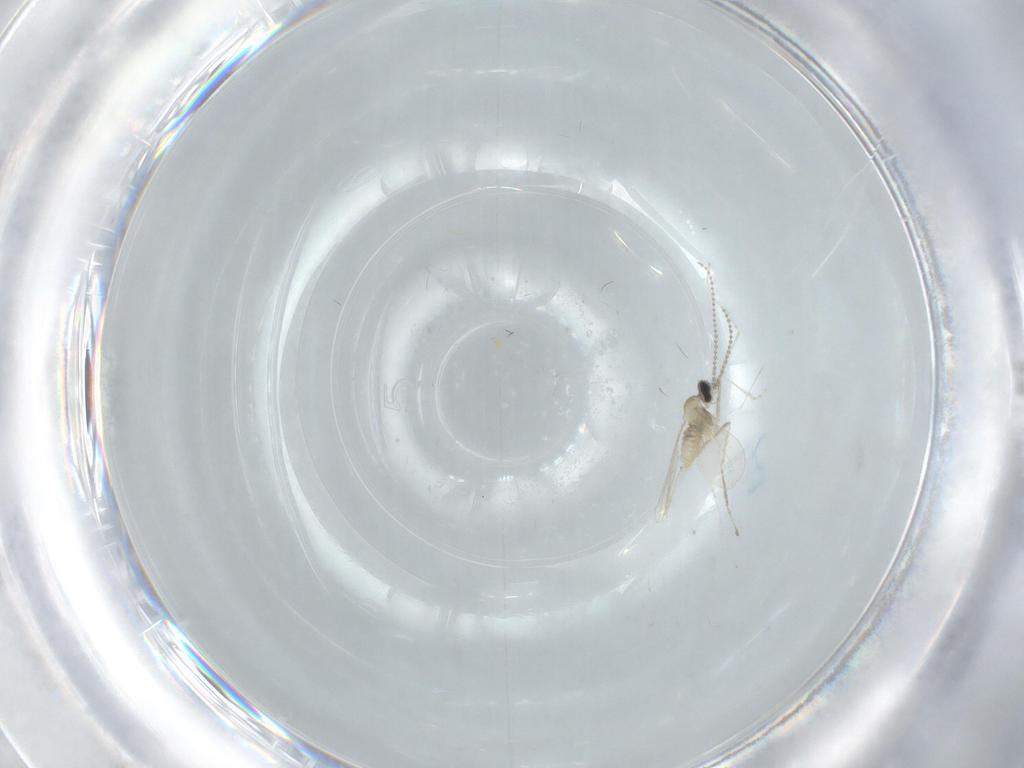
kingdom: Animalia
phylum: Arthropoda
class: Insecta
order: Diptera
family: Cecidomyiidae
